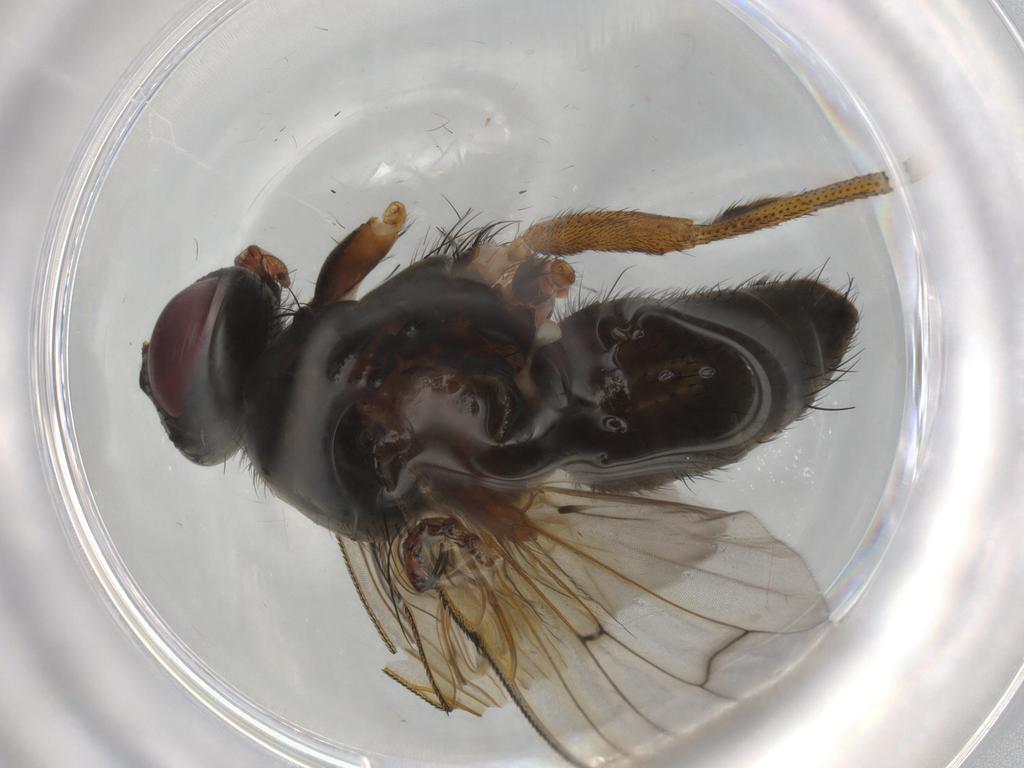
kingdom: Animalia
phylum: Arthropoda
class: Insecta
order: Diptera
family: Muscidae
